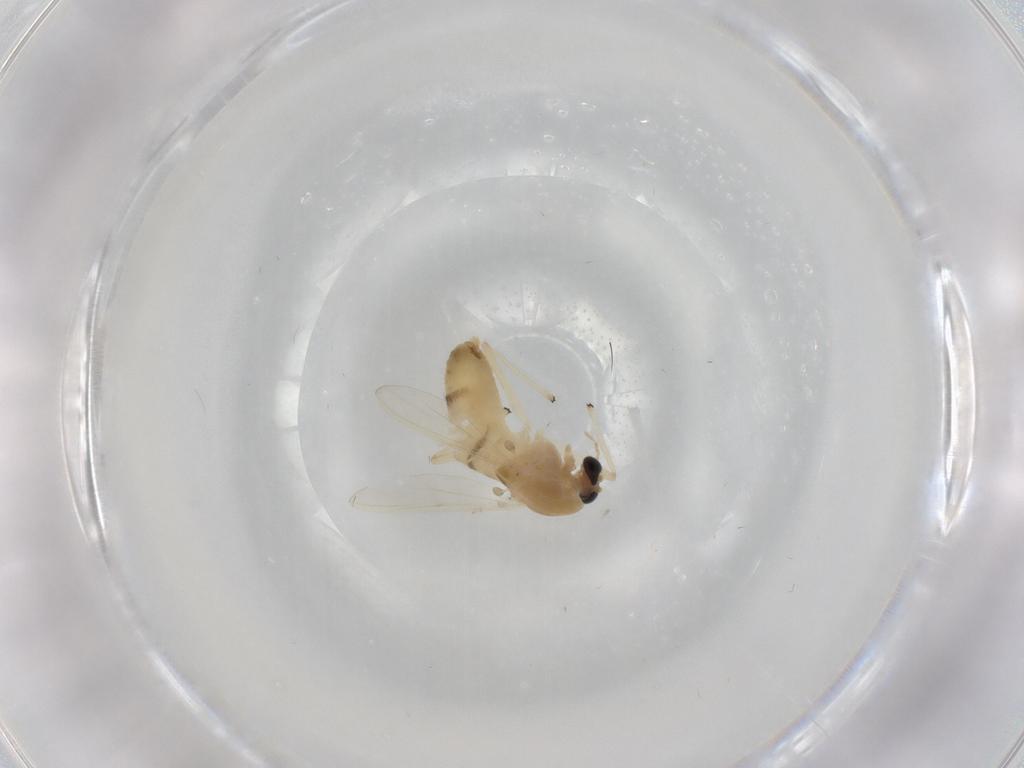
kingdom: Animalia
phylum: Arthropoda
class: Insecta
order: Diptera
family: Chironomidae
